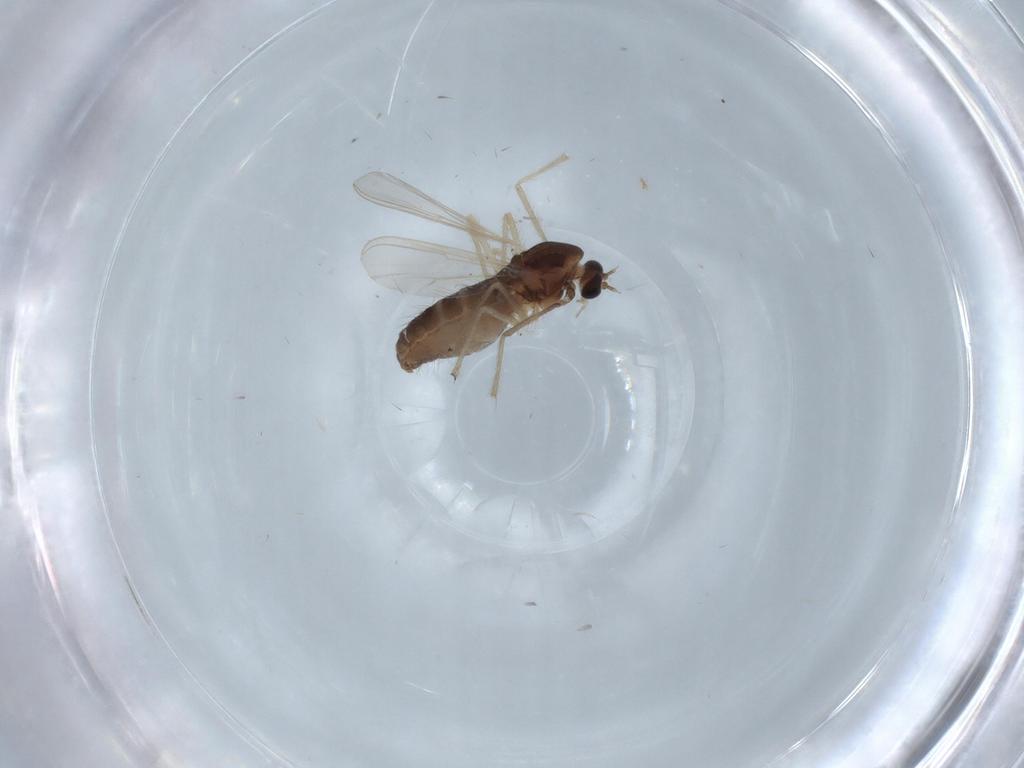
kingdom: Animalia
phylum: Arthropoda
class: Insecta
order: Diptera
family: Chironomidae
